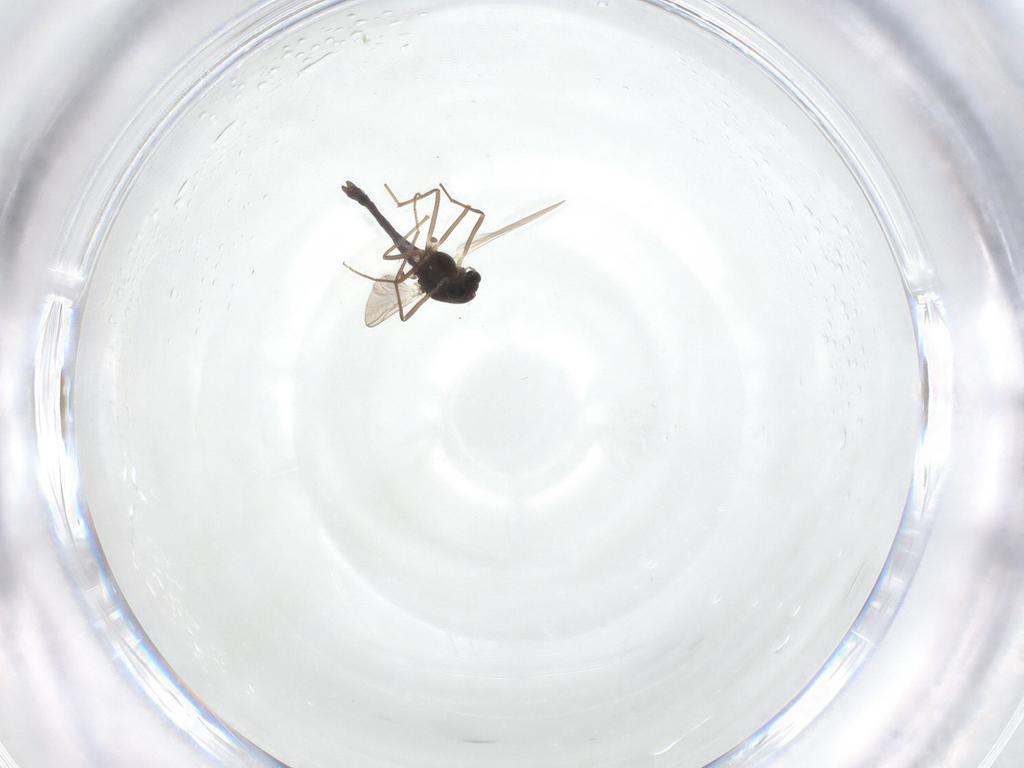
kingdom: Animalia
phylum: Arthropoda
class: Insecta
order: Diptera
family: Chironomidae
